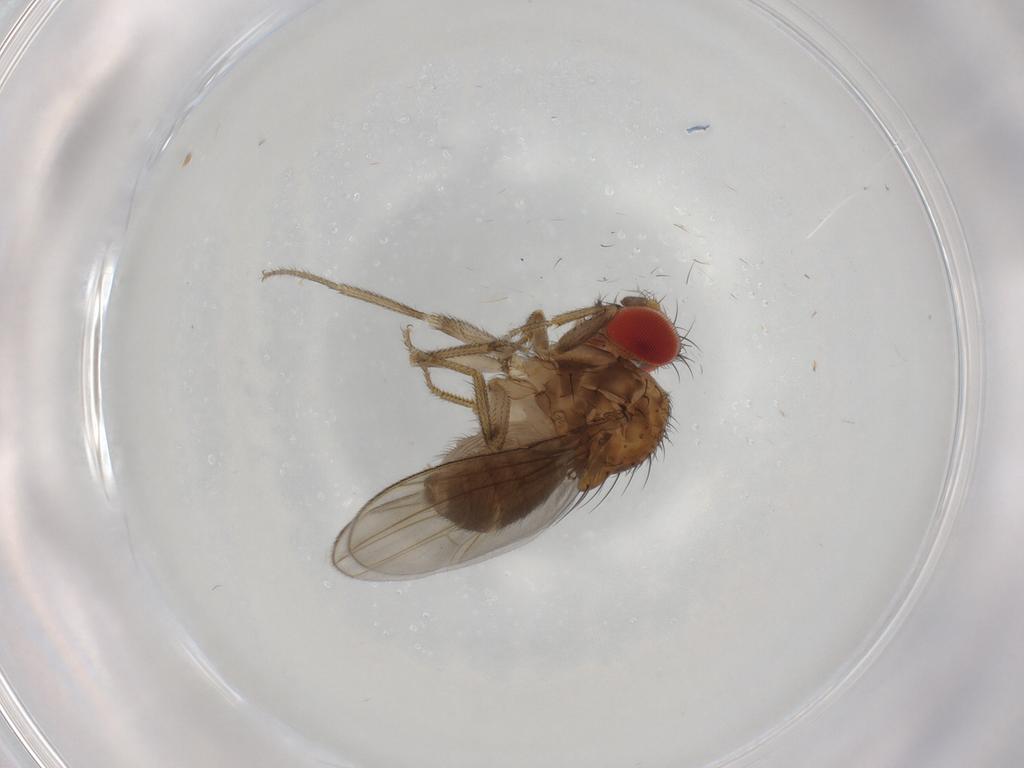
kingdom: Animalia
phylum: Arthropoda
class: Insecta
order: Diptera
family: Drosophilidae
